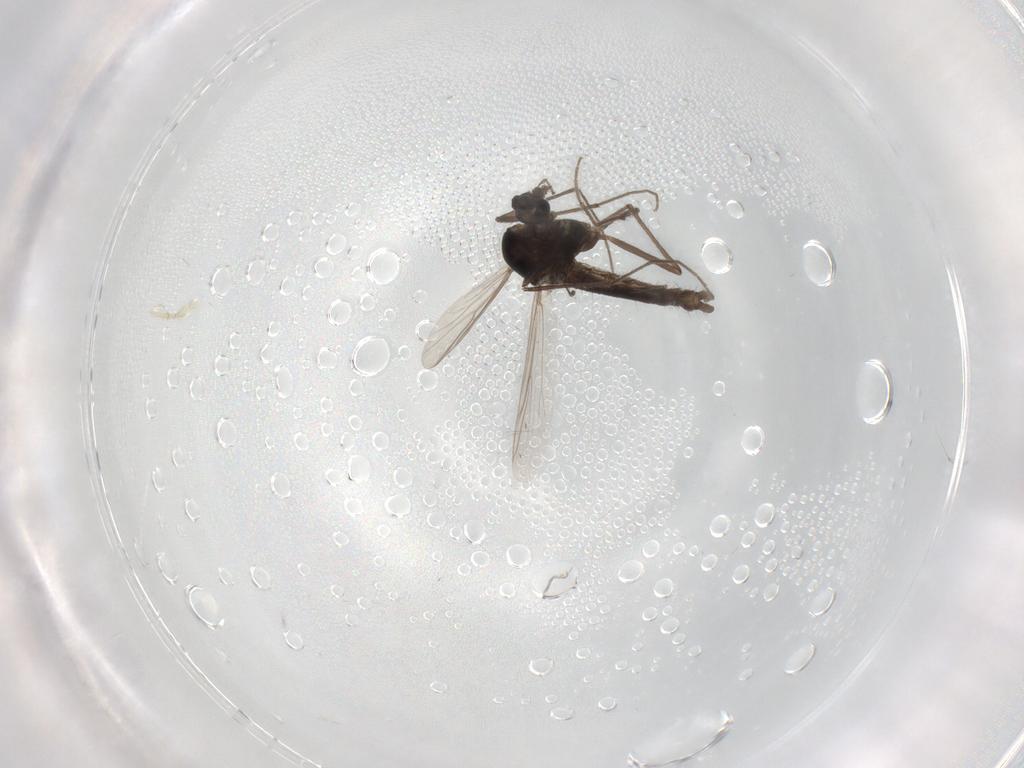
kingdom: Animalia
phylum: Arthropoda
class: Insecta
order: Diptera
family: Chironomidae
